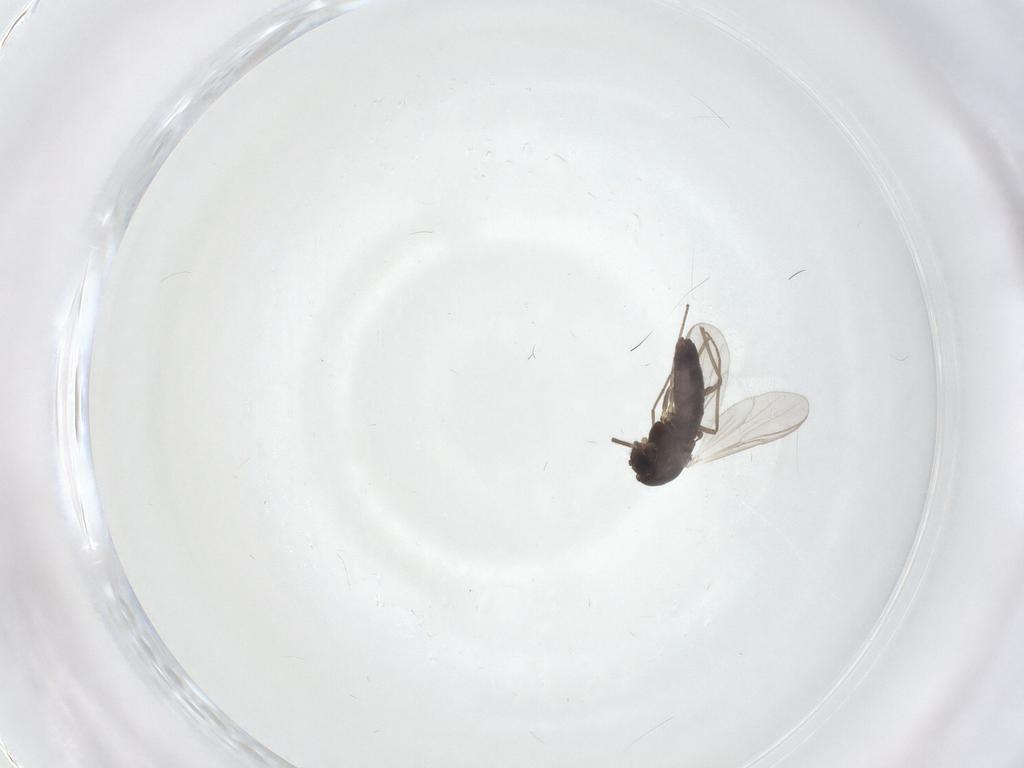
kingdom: Animalia
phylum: Arthropoda
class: Insecta
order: Diptera
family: Chironomidae
